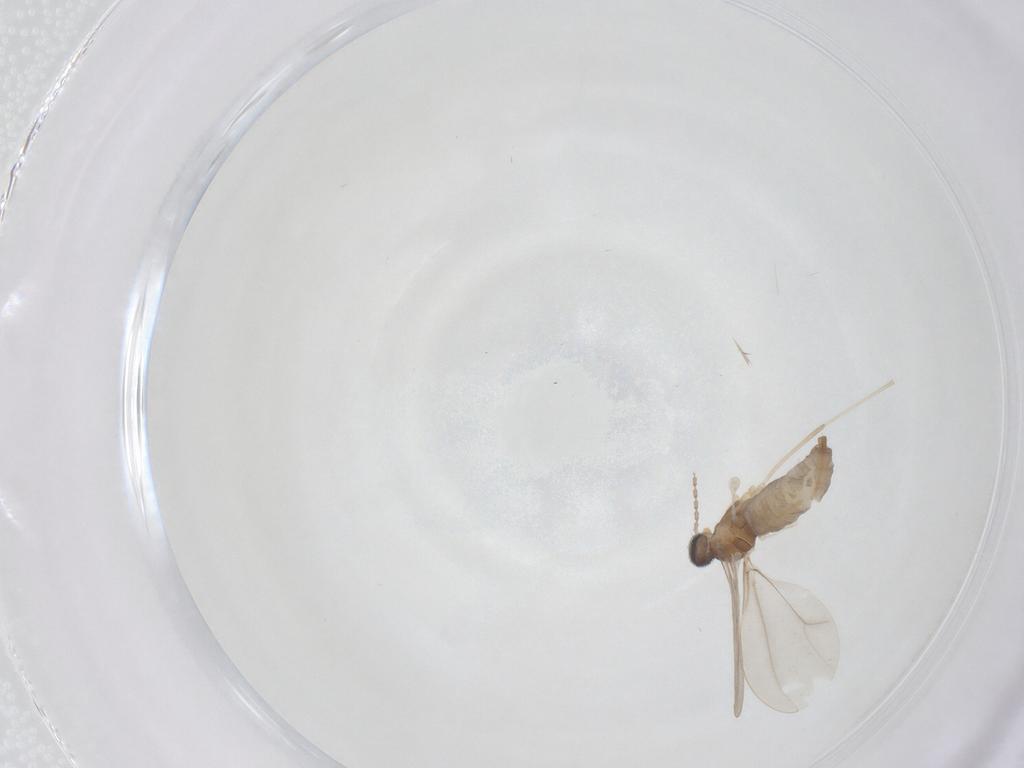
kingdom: Animalia
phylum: Arthropoda
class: Insecta
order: Diptera
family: Cecidomyiidae
